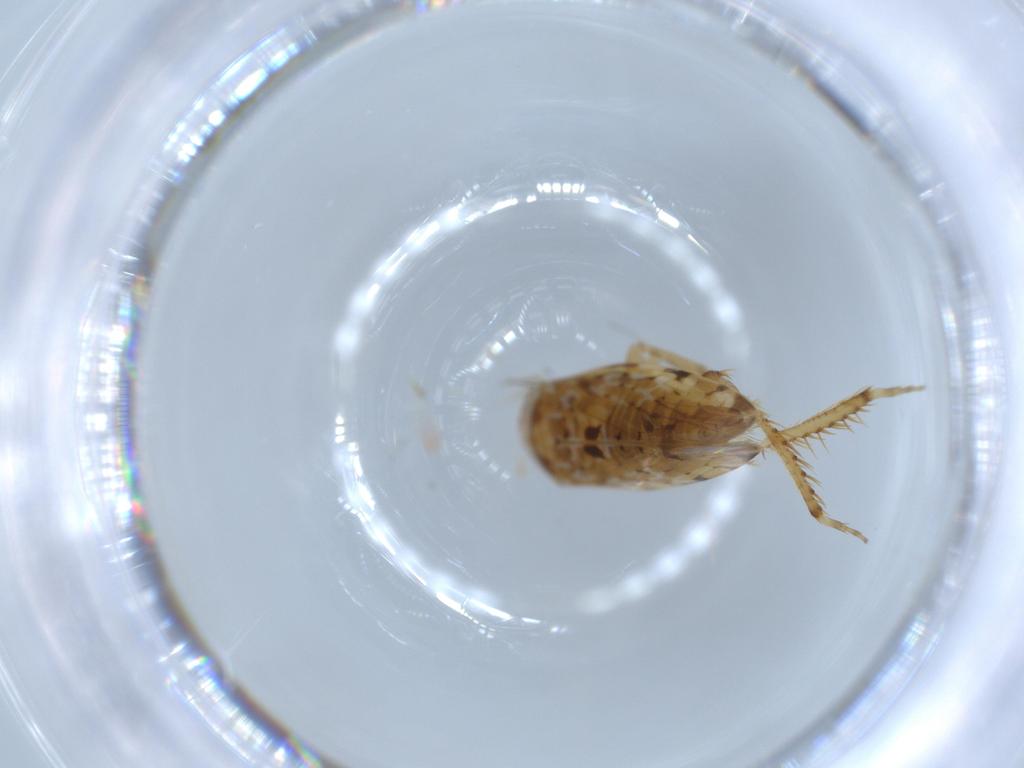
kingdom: Animalia
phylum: Arthropoda
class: Insecta
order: Hemiptera
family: Cicadellidae
